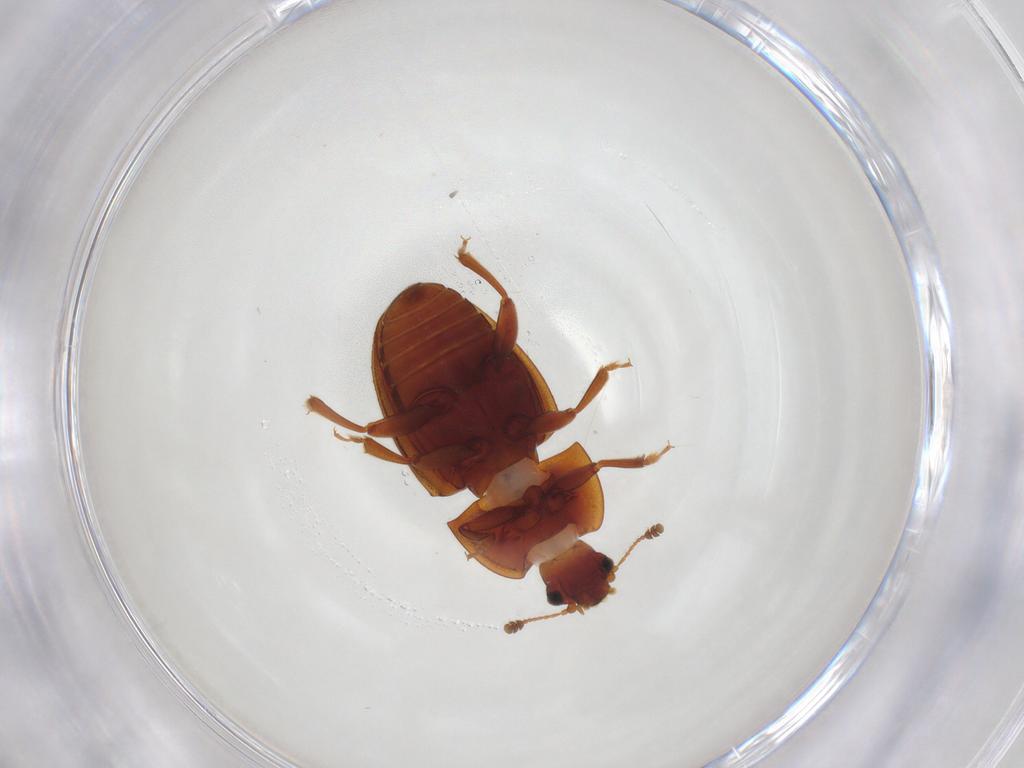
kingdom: Animalia
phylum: Arthropoda
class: Insecta
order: Coleoptera
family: Nitidulidae
